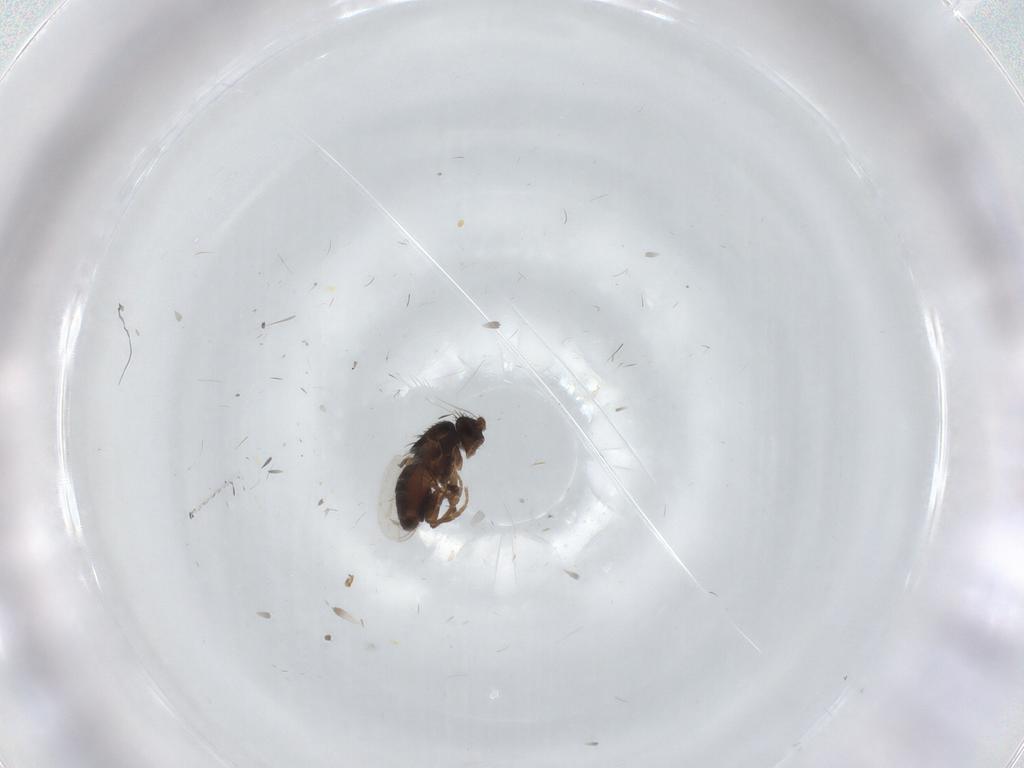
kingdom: Animalia
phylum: Arthropoda
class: Insecta
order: Diptera
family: Sphaeroceridae
